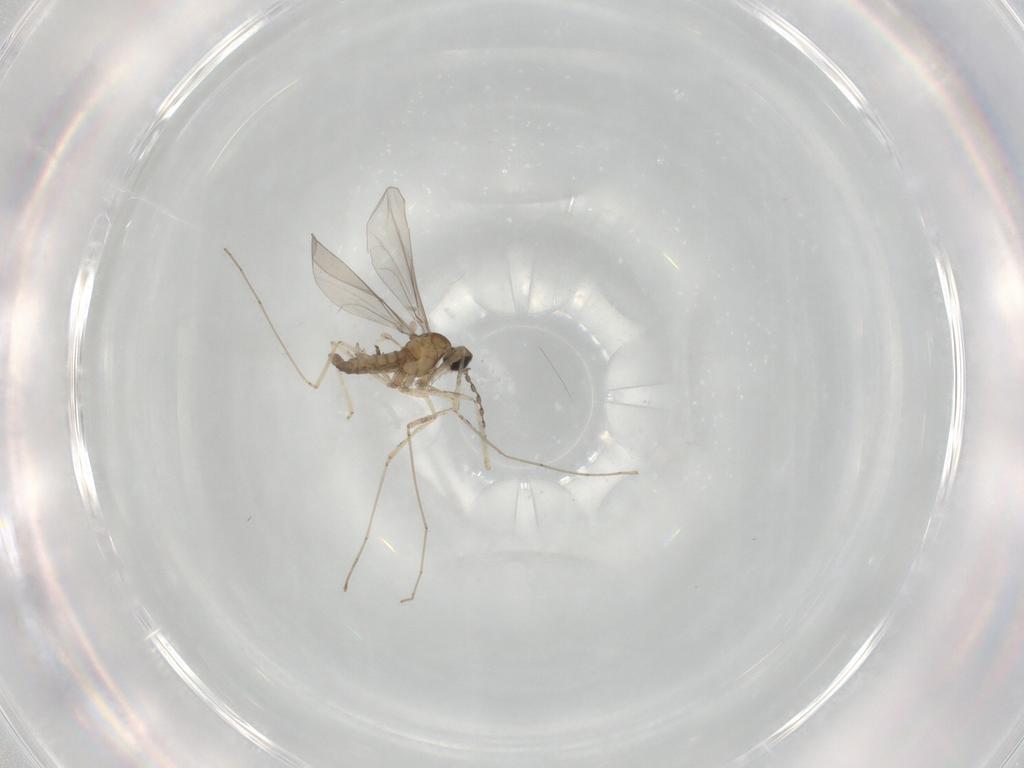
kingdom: Animalia
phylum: Arthropoda
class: Insecta
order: Diptera
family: Cecidomyiidae
